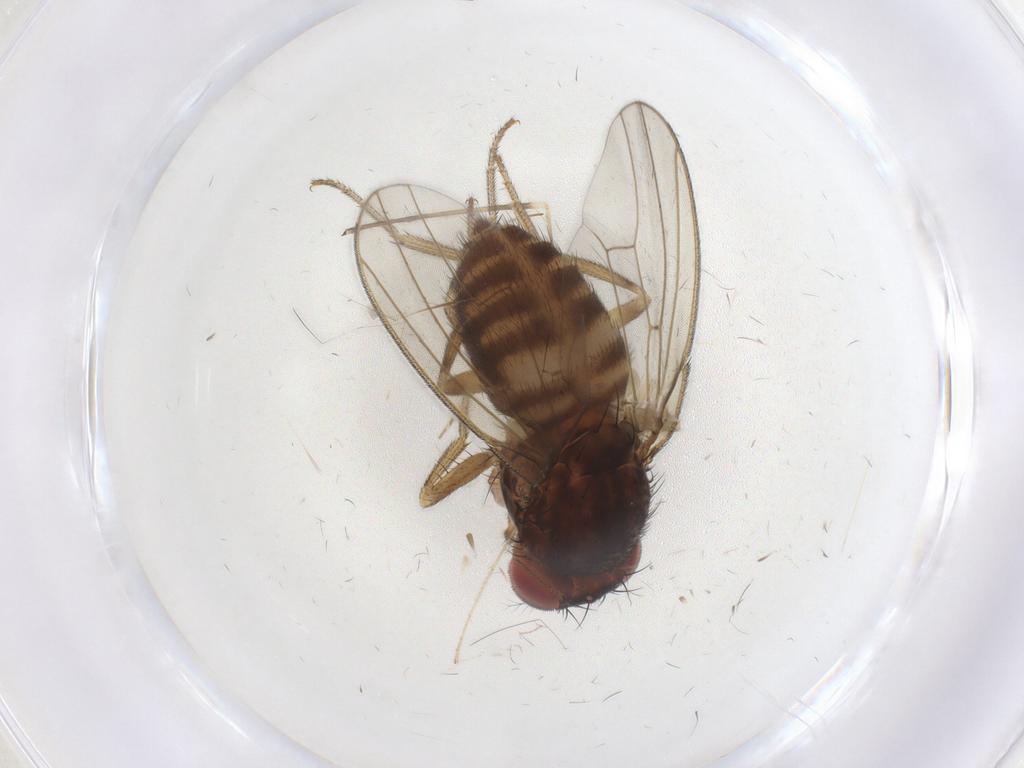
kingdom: Animalia
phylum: Arthropoda
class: Insecta
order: Diptera
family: Drosophilidae
